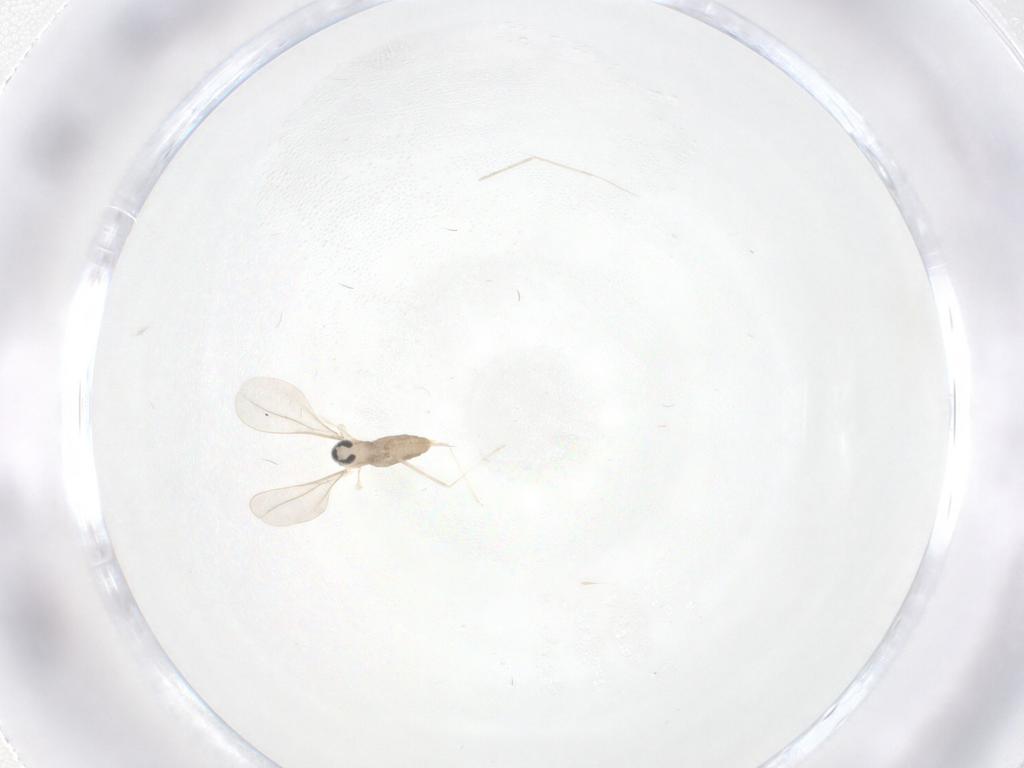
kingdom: Animalia
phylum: Arthropoda
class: Insecta
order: Diptera
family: Cecidomyiidae
